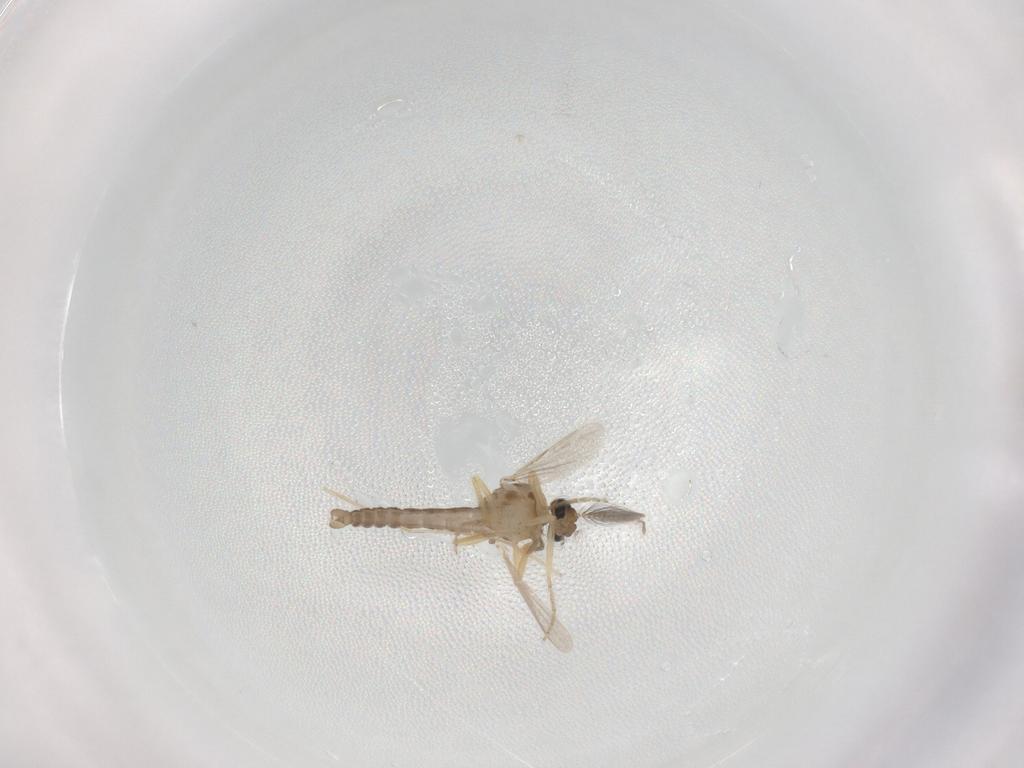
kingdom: Animalia
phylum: Arthropoda
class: Insecta
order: Diptera
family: Ceratopogonidae
